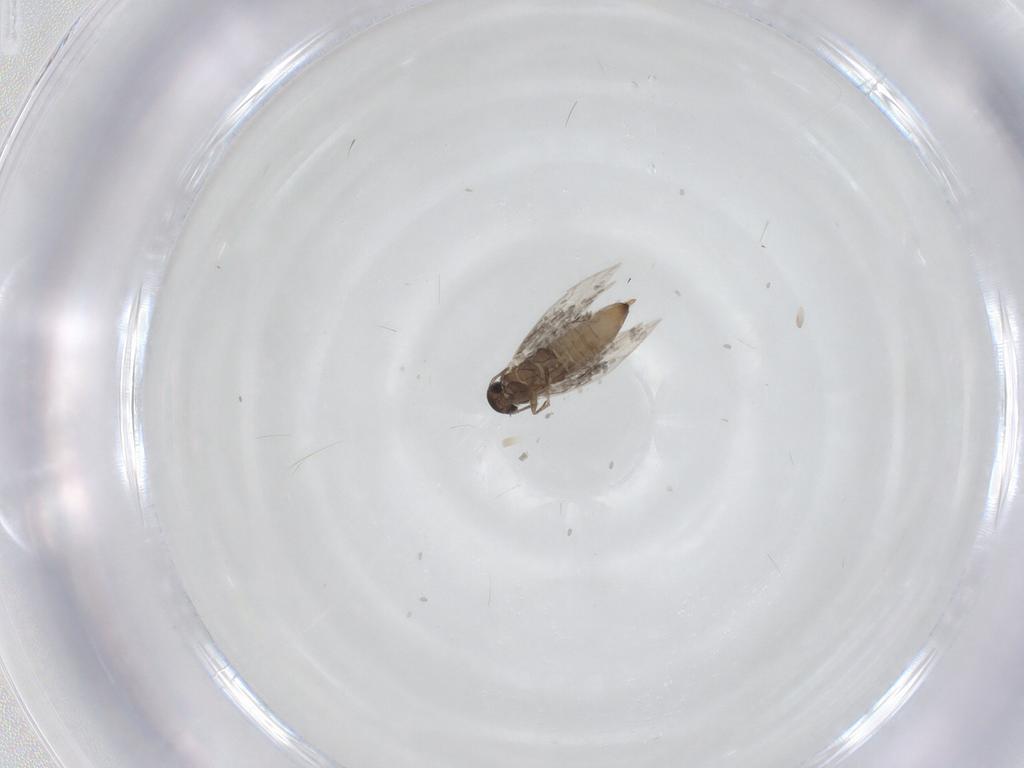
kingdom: Animalia
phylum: Arthropoda
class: Insecta
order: Lepidoptera
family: Heliozelidae
